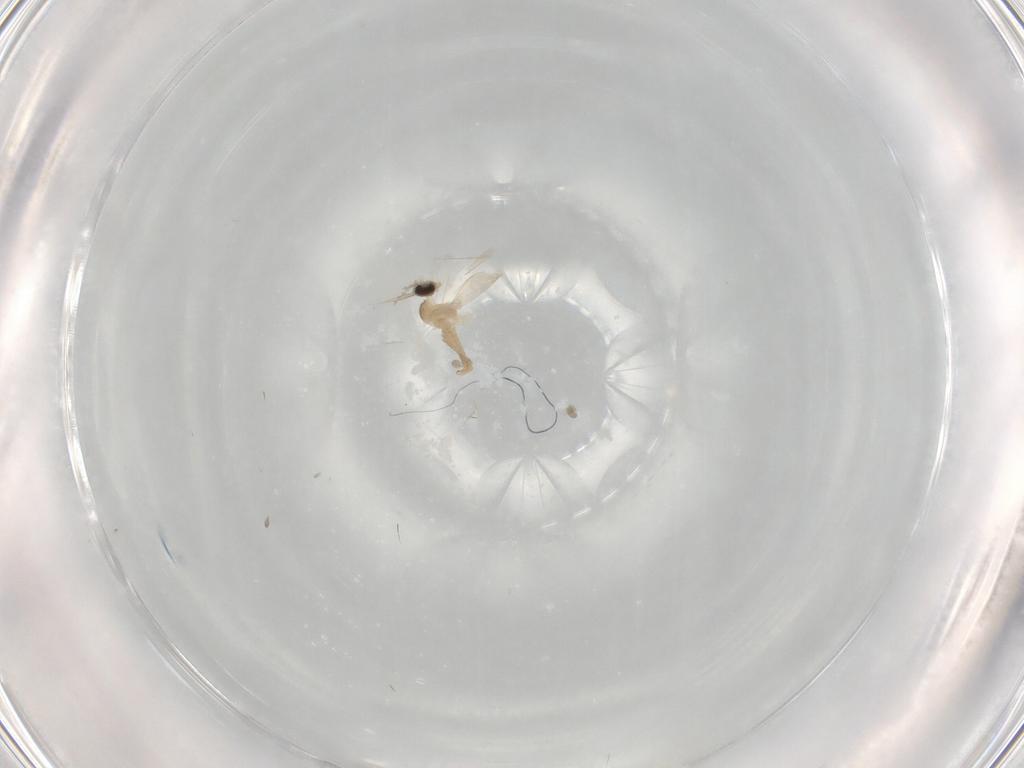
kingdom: Animalia
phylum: Arthropoda
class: Insecta
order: Diptera
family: Cecidomyiidae
